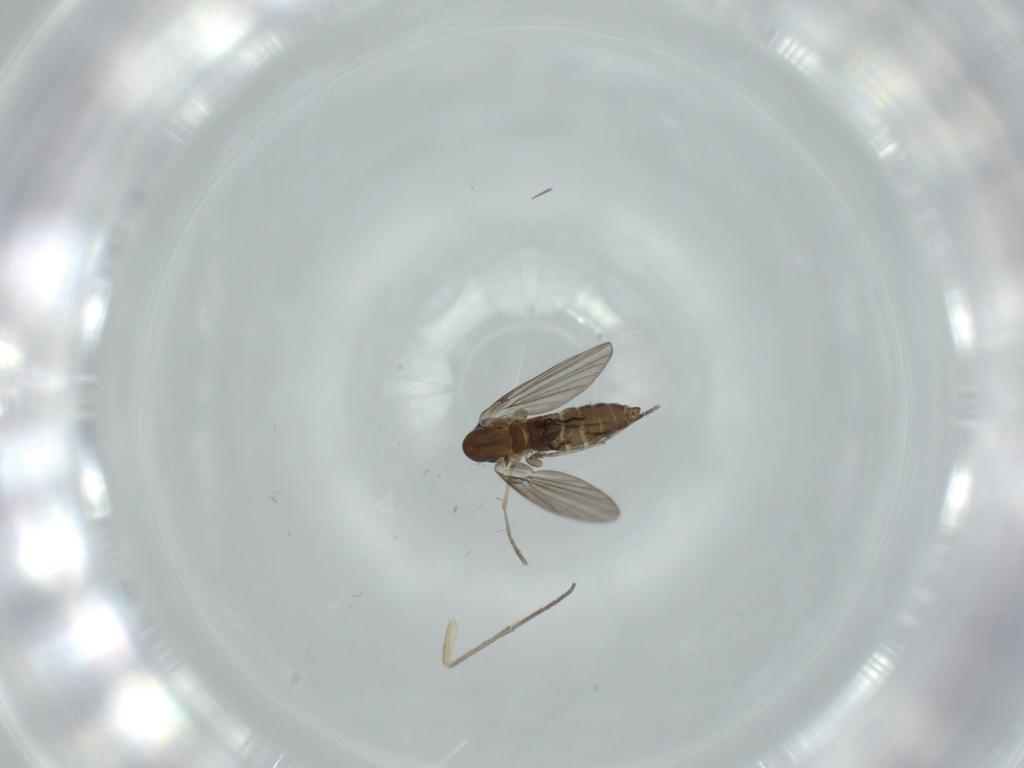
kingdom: Animalia
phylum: Arthropoda
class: Insecta
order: Diptera
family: Sciaridae
